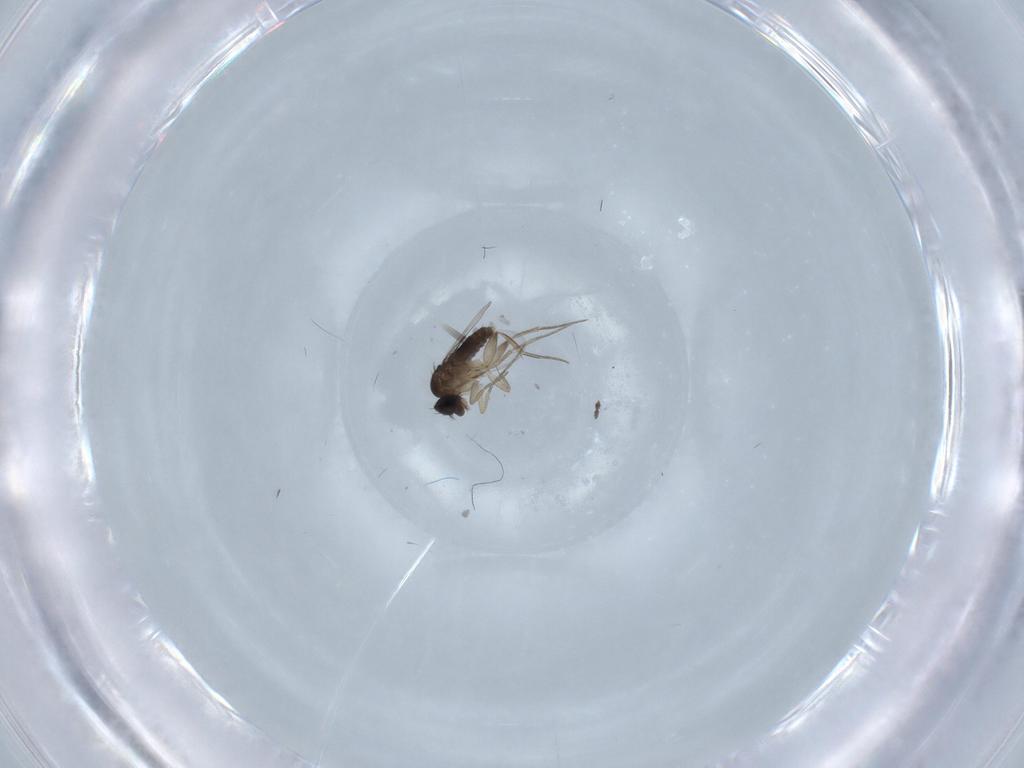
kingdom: Animalia
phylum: Arthropoda
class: Insecta
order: Diptera
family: Phoridae
